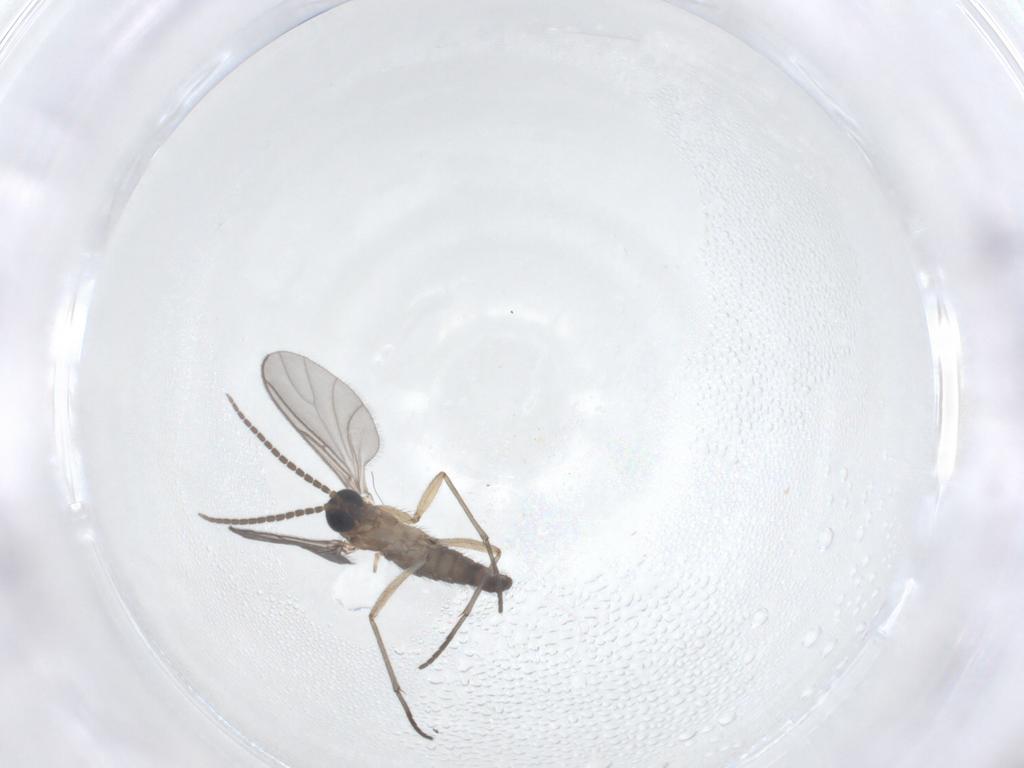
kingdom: Animalia
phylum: Arthropoda
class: Insecta
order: Diptera
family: Sciaridae
